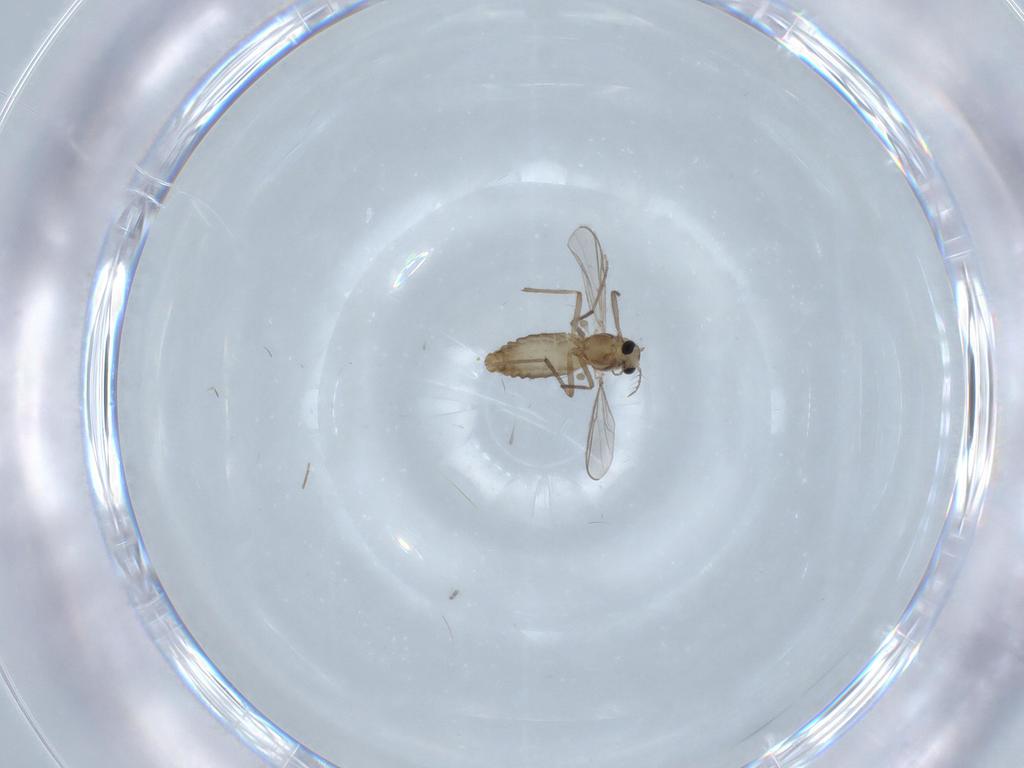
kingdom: Animalia
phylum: Arthropoda
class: Insecta
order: Diptera
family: Chironomidae
